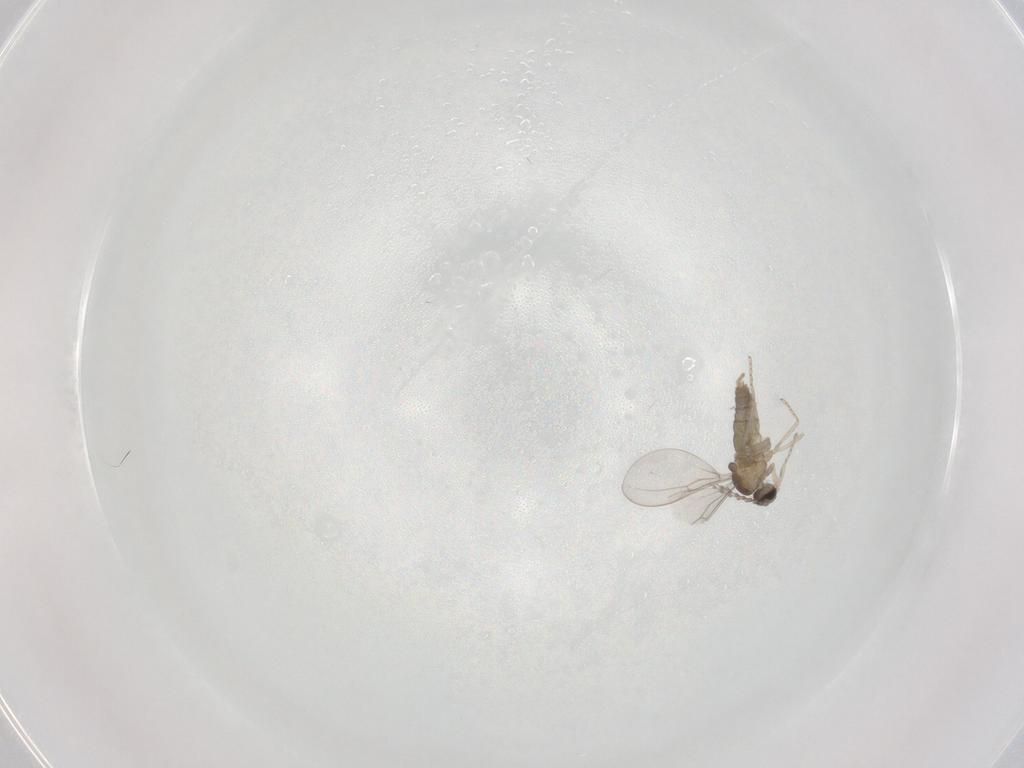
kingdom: Animalia
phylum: Arthropoda
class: Insecta
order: Diptera
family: Cecidomyiidae
